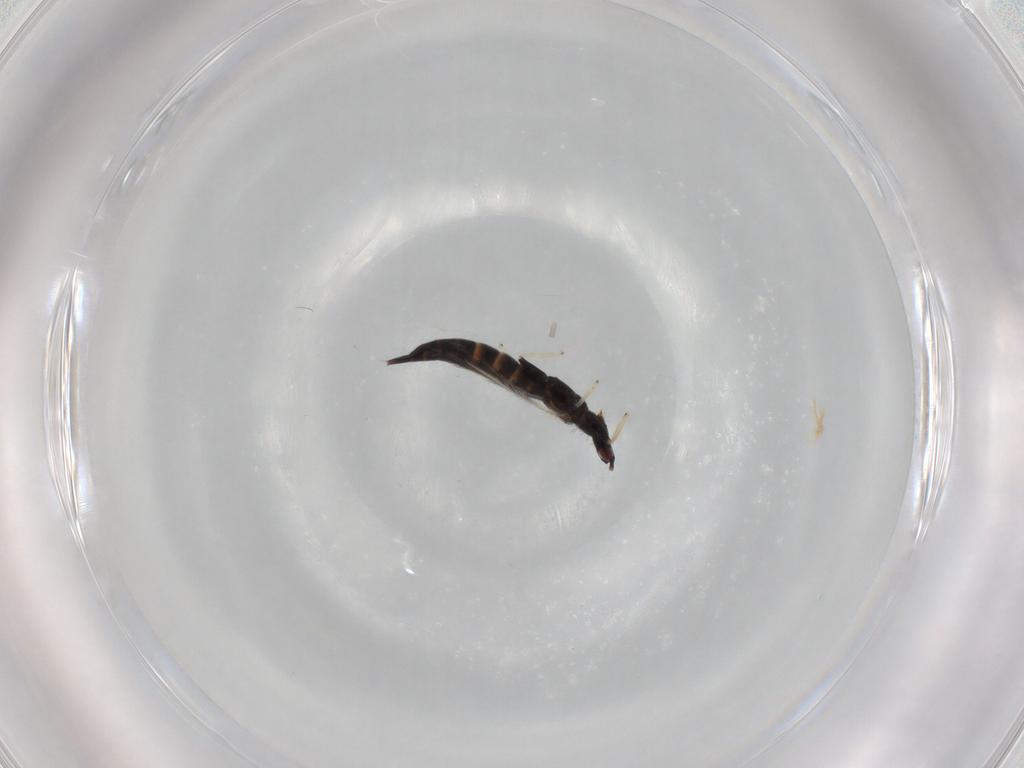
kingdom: Animalia
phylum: Arthropoda
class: Insecta
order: Thysanoptera
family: Phlaeothripidae
